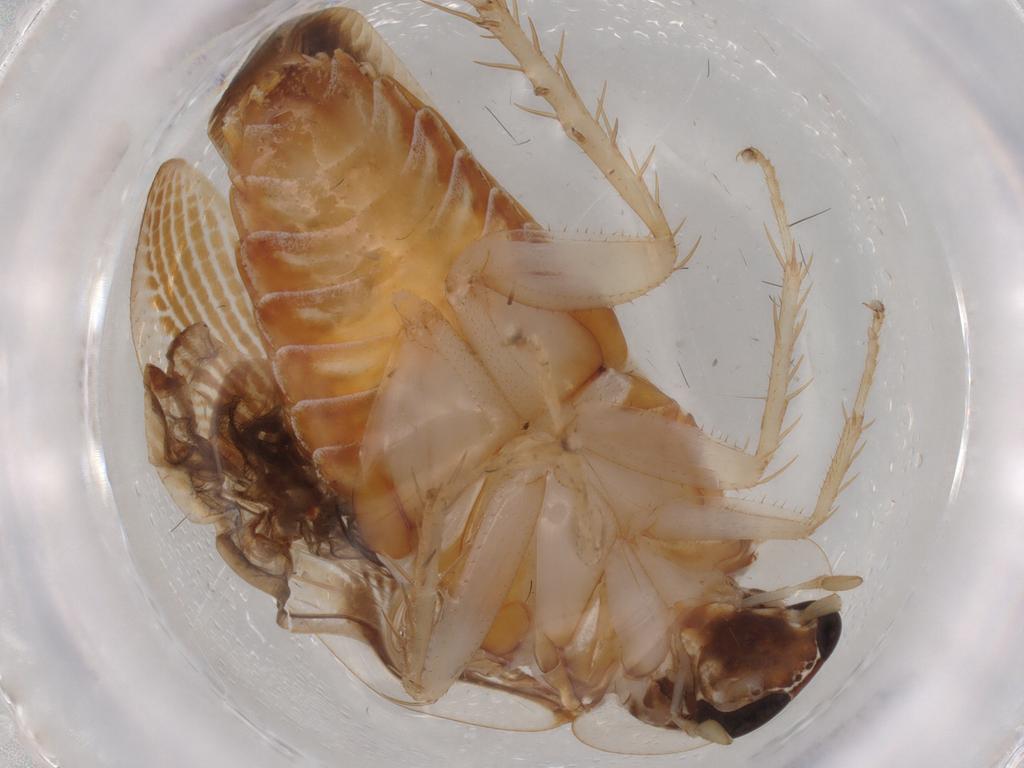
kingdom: Animalia
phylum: Arthropoda
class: Insecta
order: Blattodea
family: Ectobiidae
